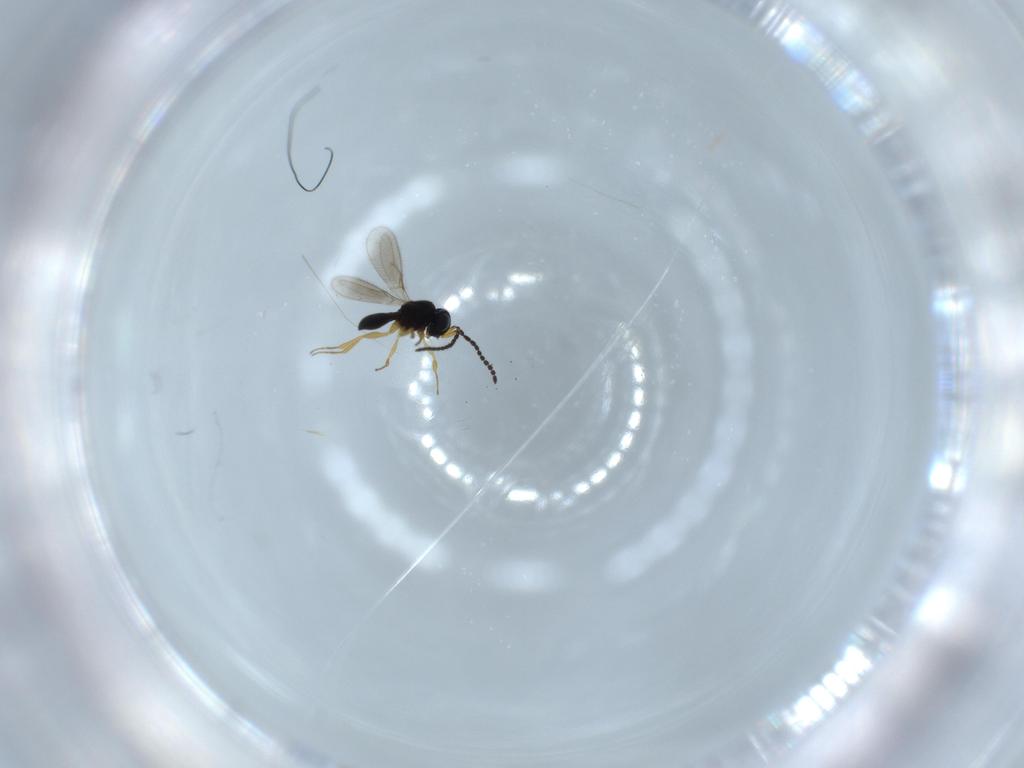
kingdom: Animalia
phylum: Arthropoda
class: Insecta
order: Hymenoptera
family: Scelionidae
